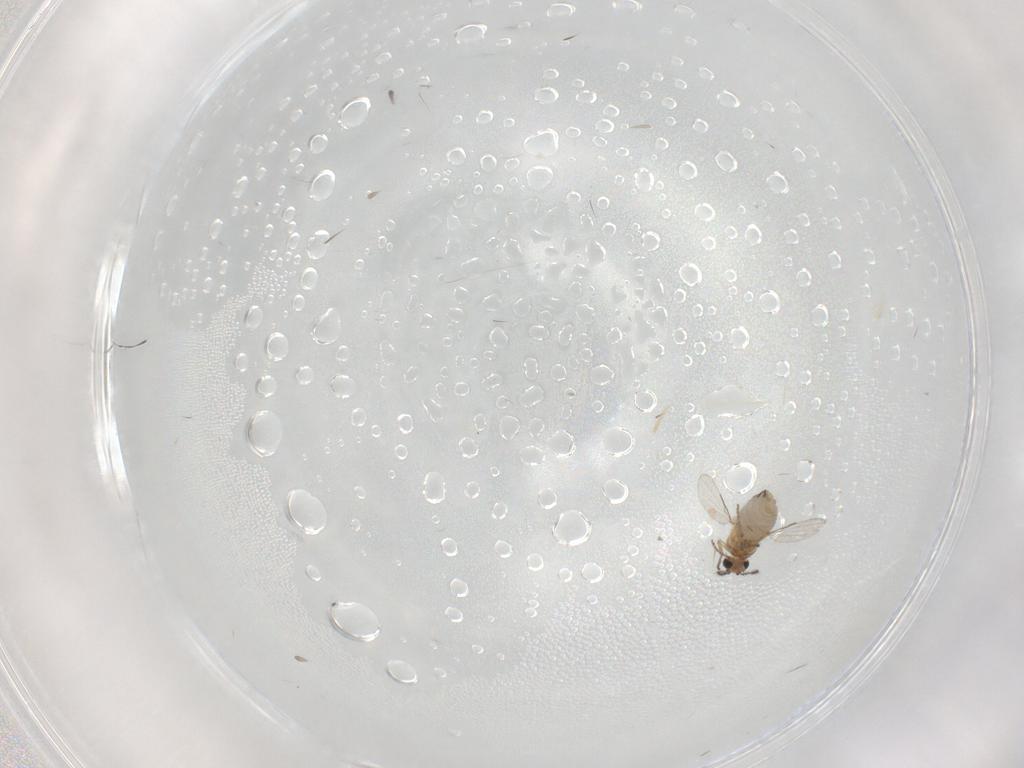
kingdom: Animalia
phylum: Arthropoda
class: Insecta
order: Diptera
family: Ceratopogonidae
